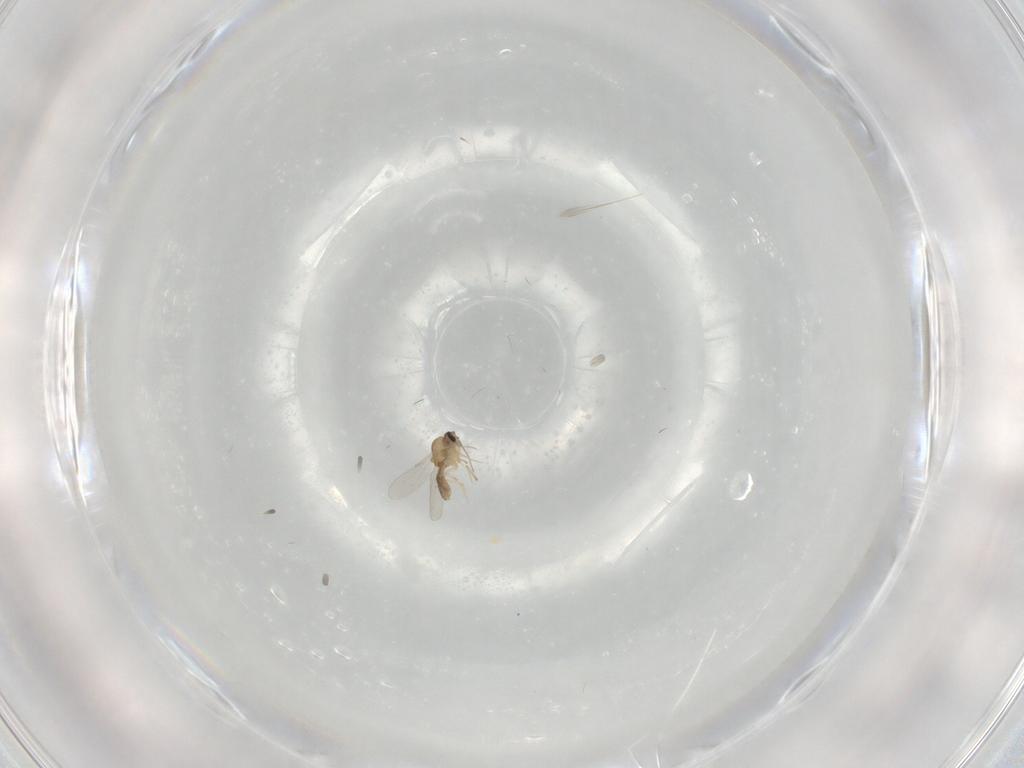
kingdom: Animalia
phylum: Arthropoda
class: Insecta
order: Diptera
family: Ceratopogonidae
